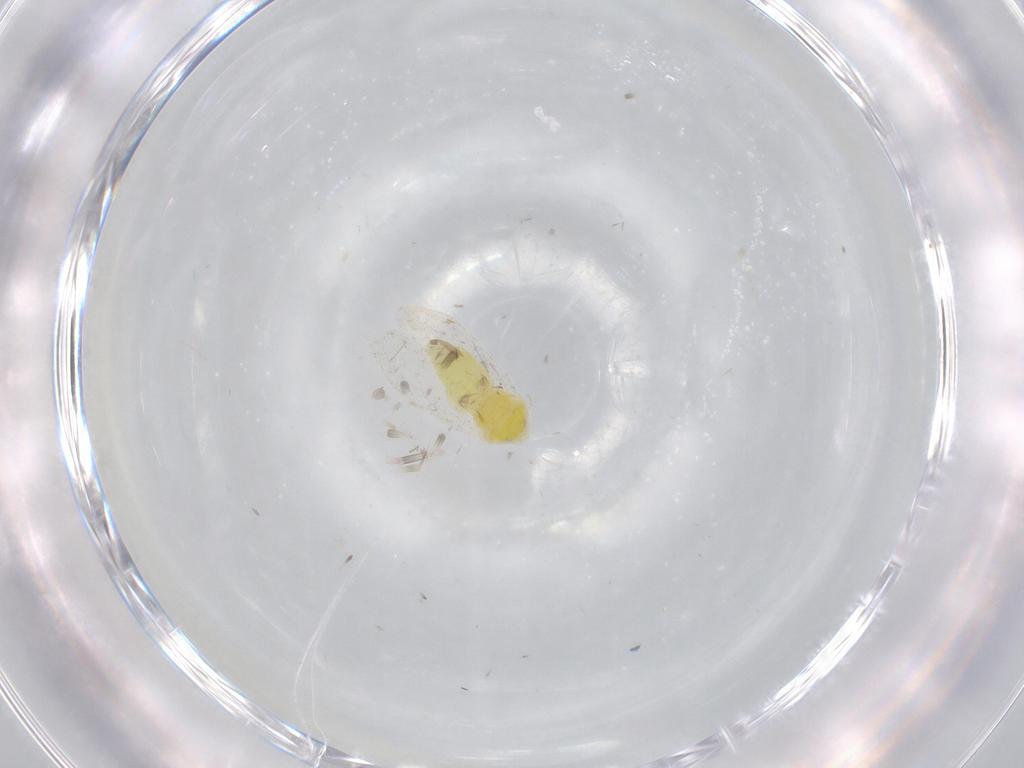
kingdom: Animalia
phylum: Arthropoda
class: Insecta
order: Hemiptera
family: Aleyrodidae
